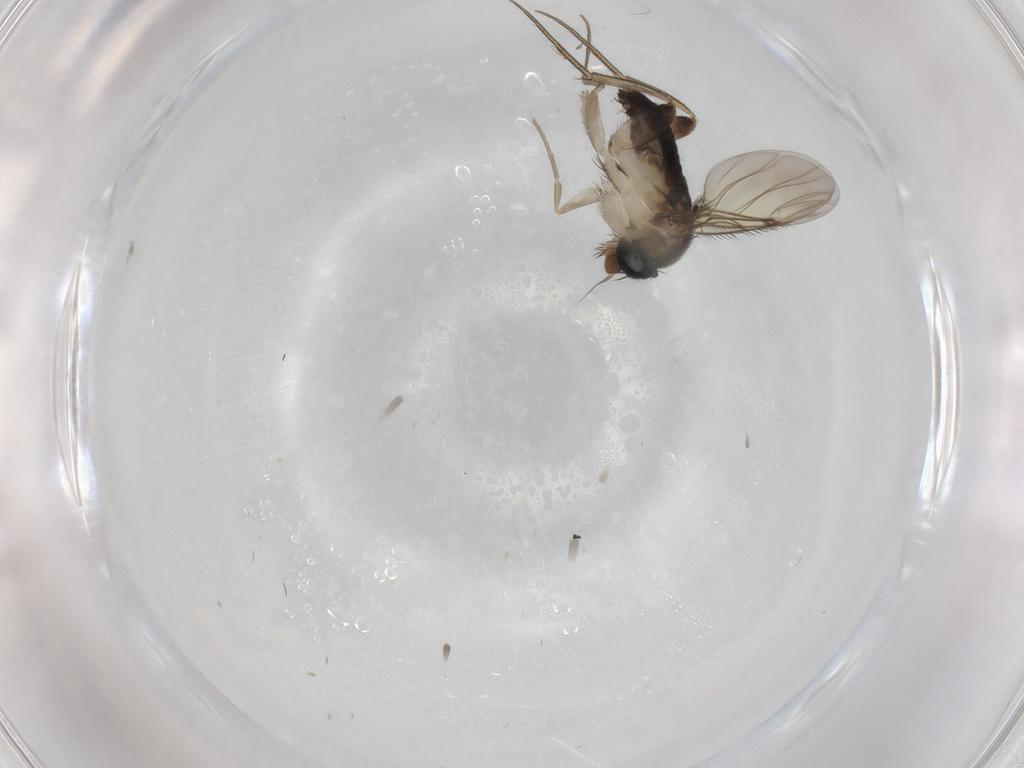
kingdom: Animalia
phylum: Arthropoda
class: Insecta
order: Diptera
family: Phoridae
